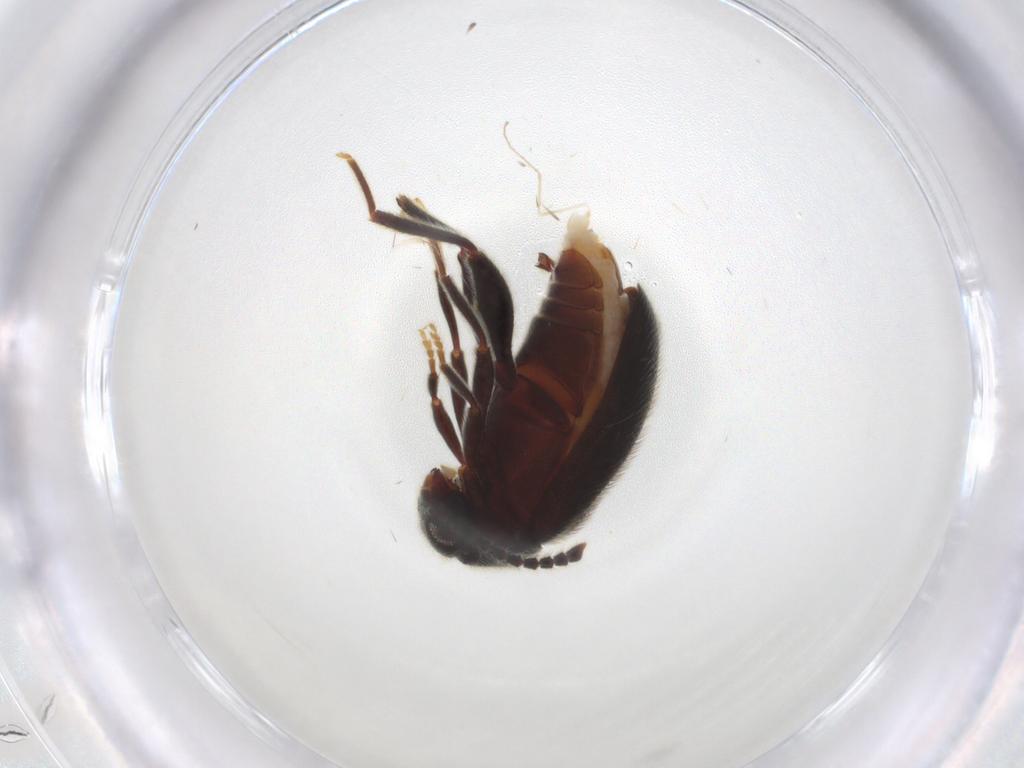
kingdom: Animalia
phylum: Arthropoda
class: Insecta
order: Coleoptera
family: Aderidae
